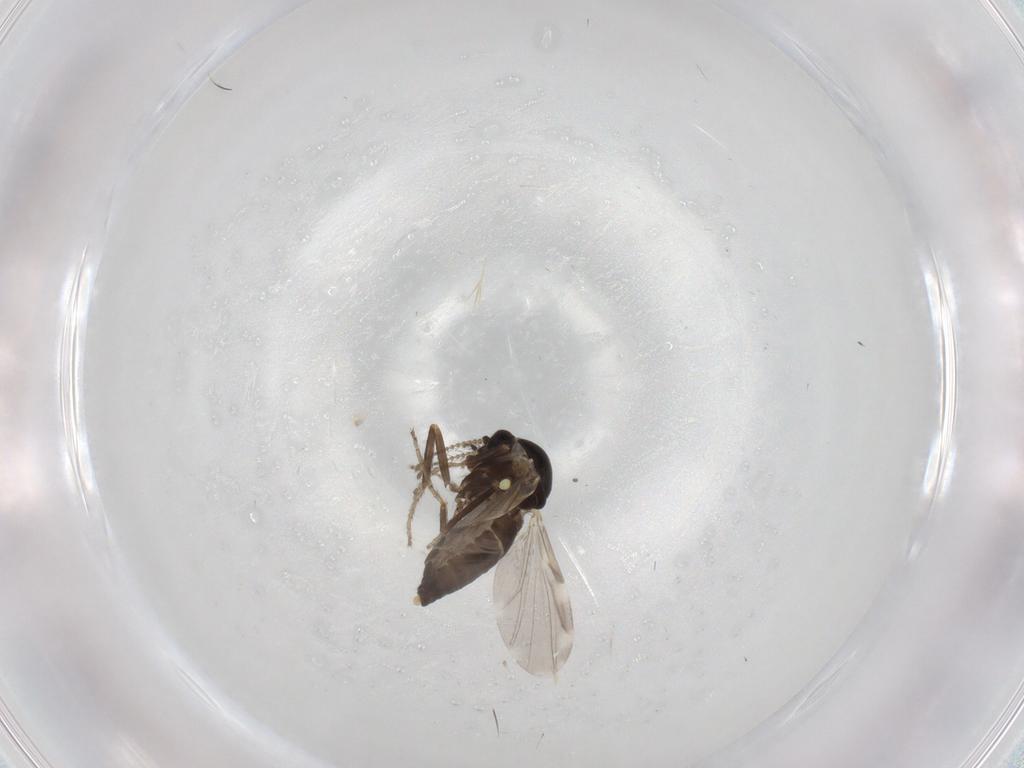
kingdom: Animalia
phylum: Arthropoda
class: Insecta
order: Diptera
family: Ceratopogonidae
